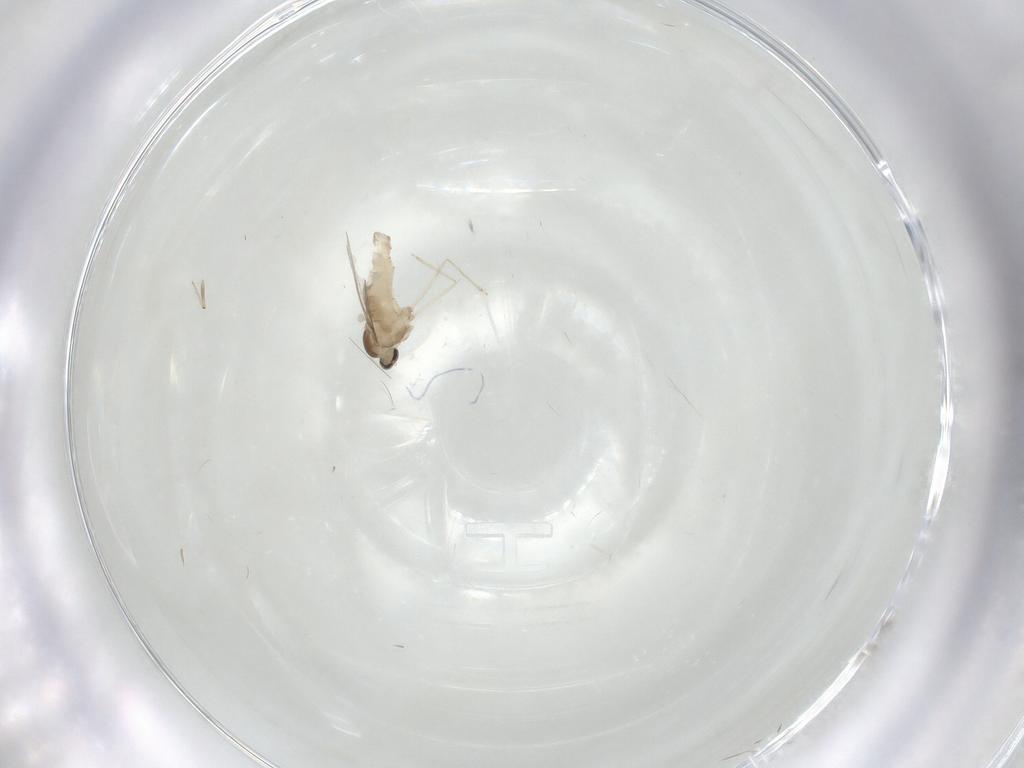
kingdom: Animalia
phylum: Arthropoda
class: Insecta
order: Diptera
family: Cecidomyiidae
